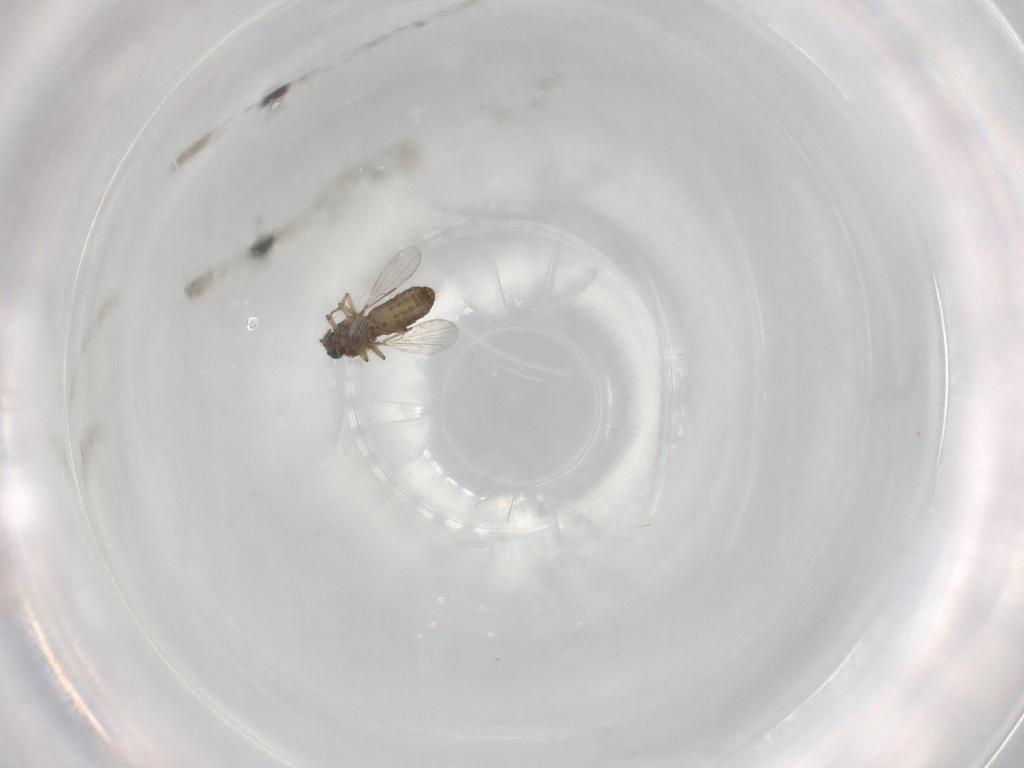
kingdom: Animalia
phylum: Arthropoda
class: Insecta
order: Diptera
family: Ceratopogonidae
